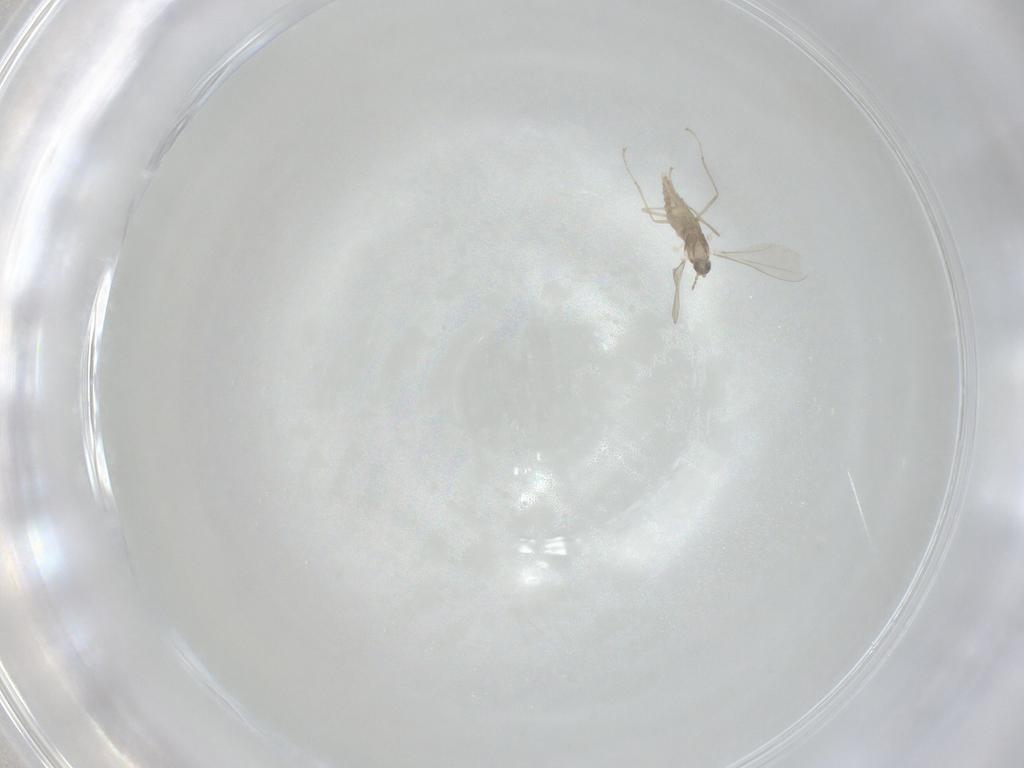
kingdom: Animalia
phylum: Arthropoda
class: Insecta
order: Diptera
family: Cecidomyiidae
